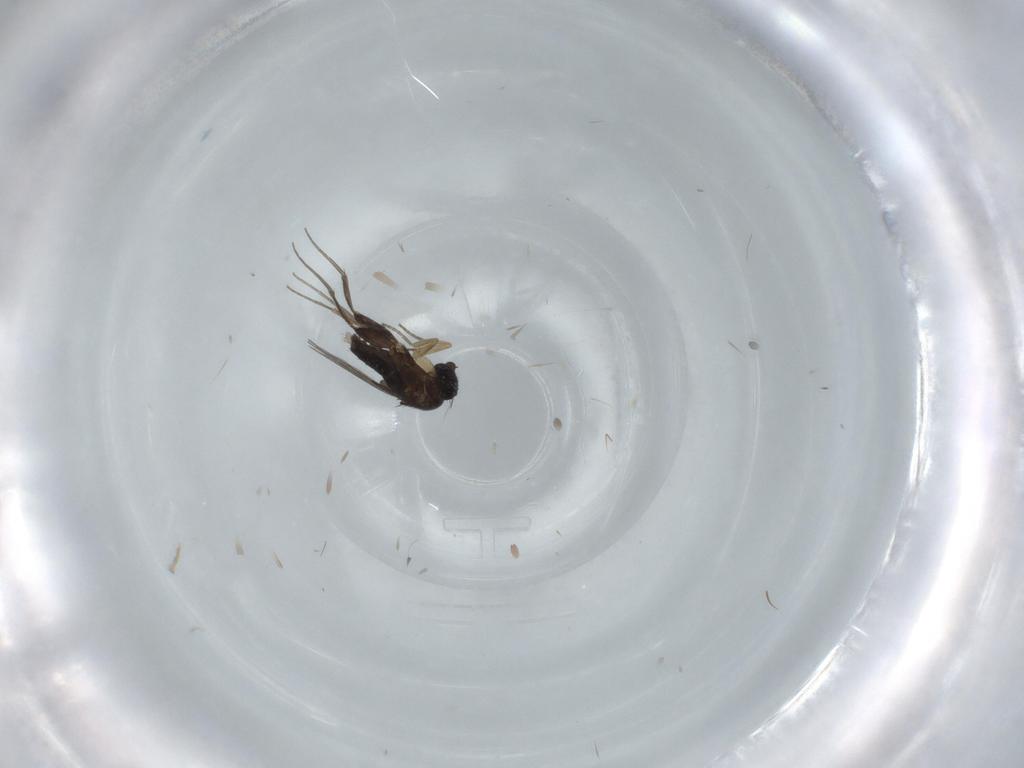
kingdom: Animalia
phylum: Arthropoda
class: Insecta
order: Diptera
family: Phoridae
